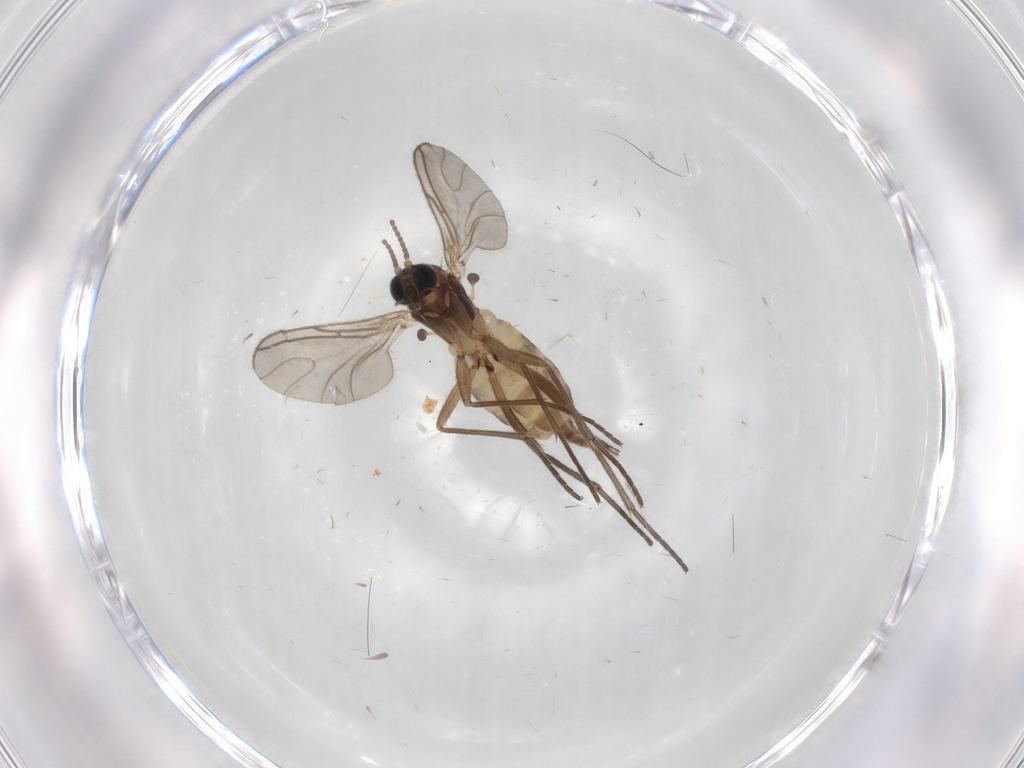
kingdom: Animalia
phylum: Arthropoda
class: Insecta
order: Diptera
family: Sciaridae
